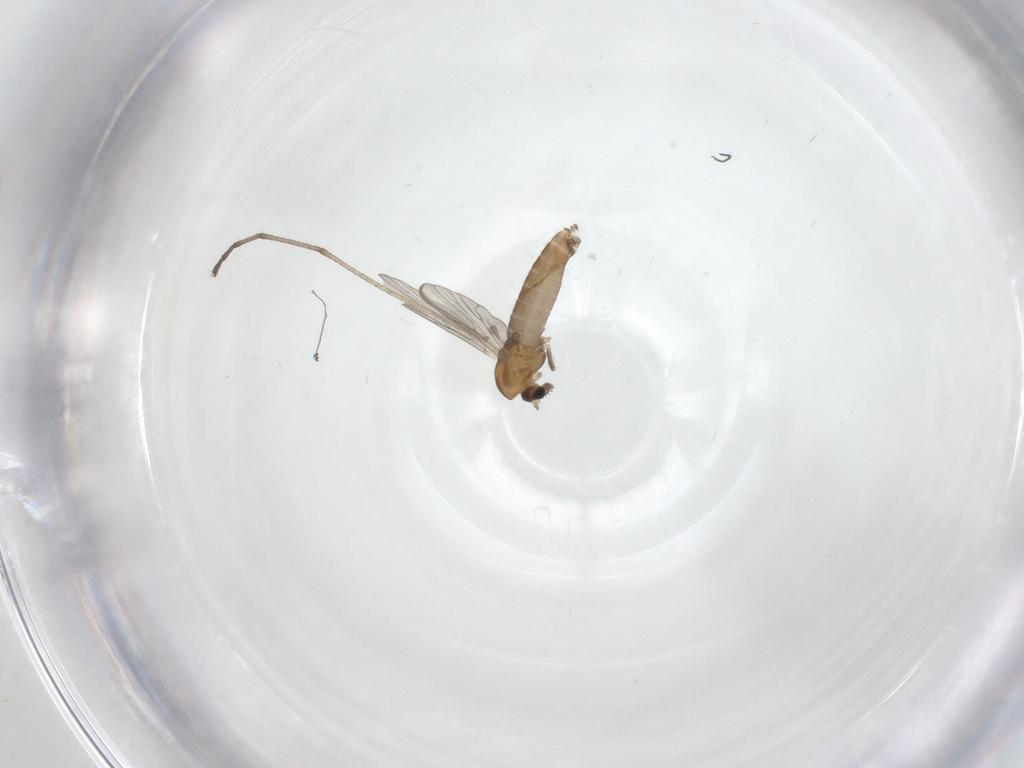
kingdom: Animalia
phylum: Arthropoda
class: Insecta
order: Diptera
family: Chironomidae
